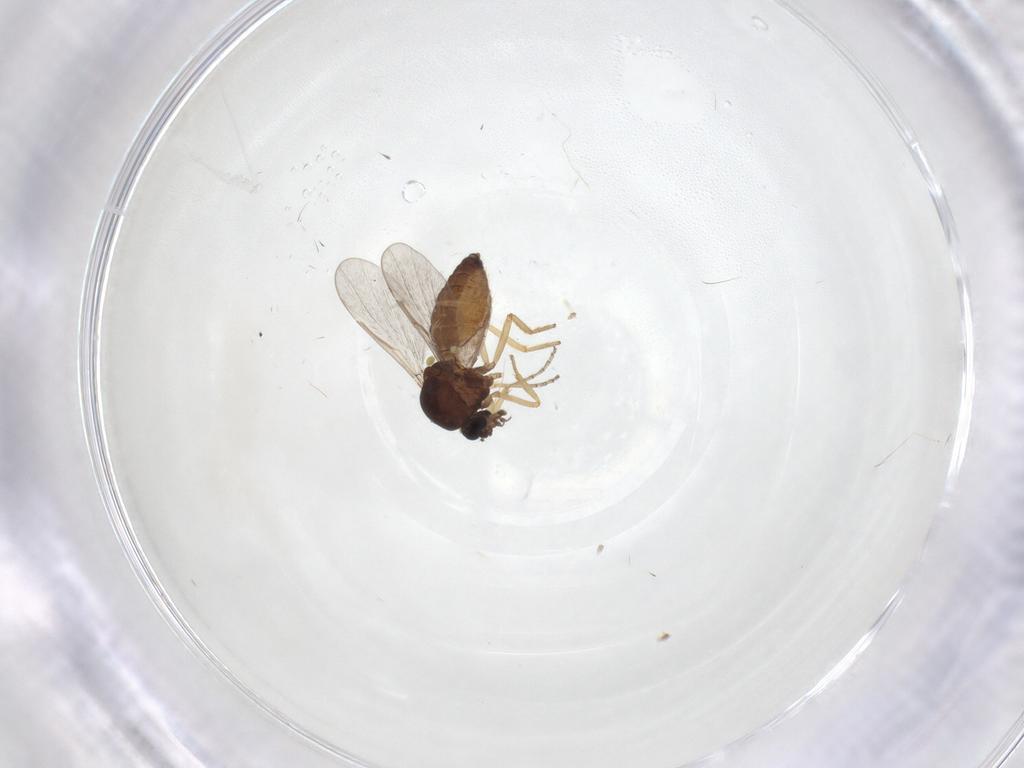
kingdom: Animalia
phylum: Arthropoda
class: Insecta
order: Diptera
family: Ceratopogonidae
